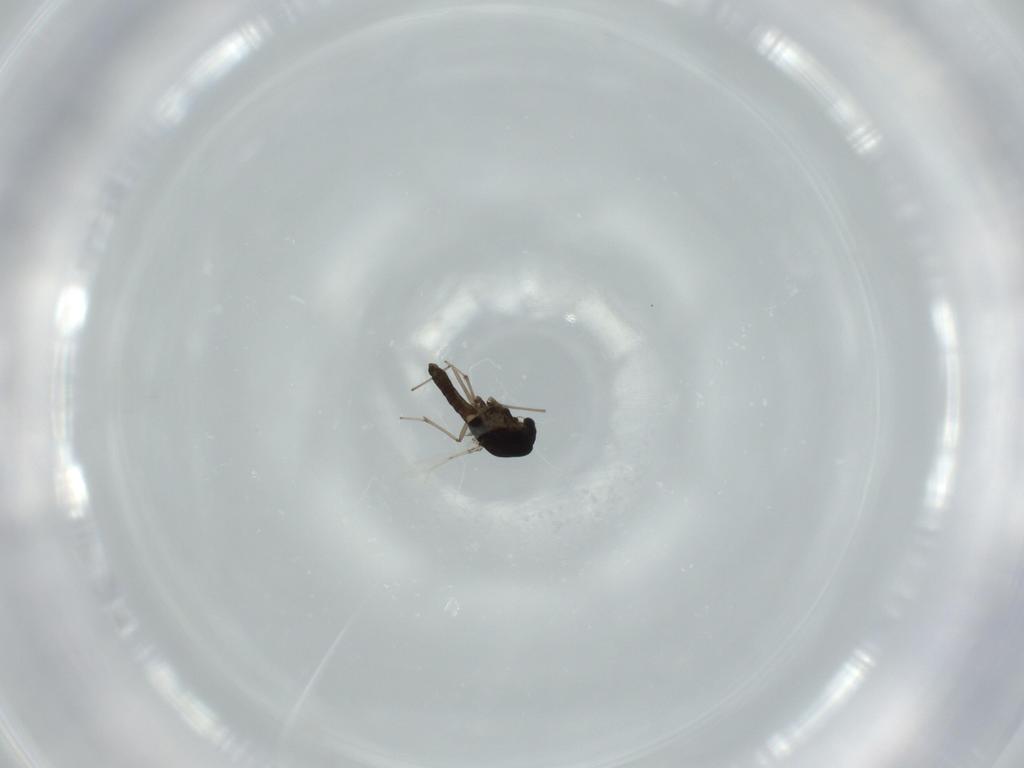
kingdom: Animalia
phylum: Arthropoda
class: Insecta
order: Diptera
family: Chironomidae
